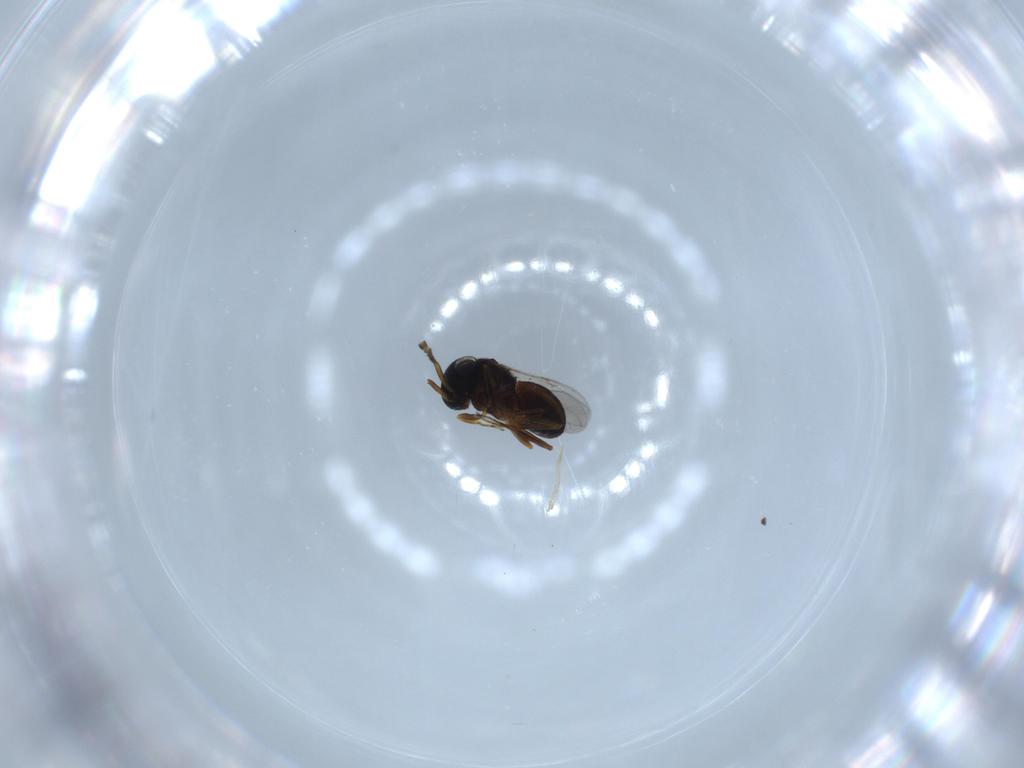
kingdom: Animalia
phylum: Arthropoda
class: Insecta
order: Hymenoptera
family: Scelionidae
